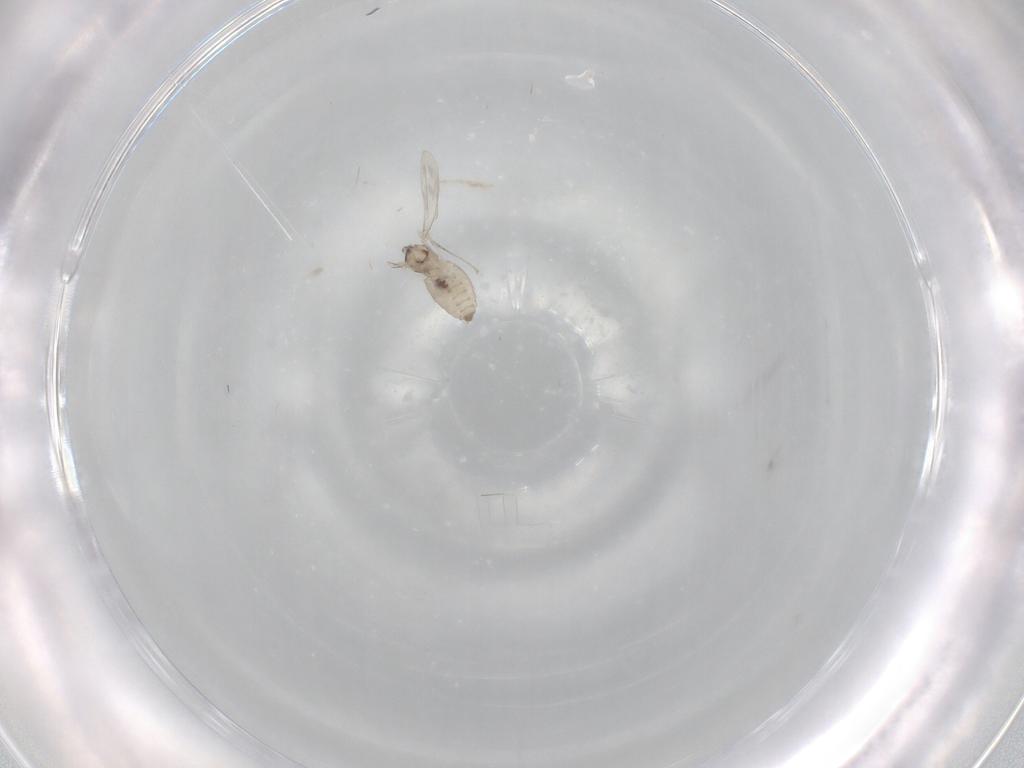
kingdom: Animalia
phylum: Arthropoda
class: Insecta
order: Diptera
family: Cecidomyiidae
